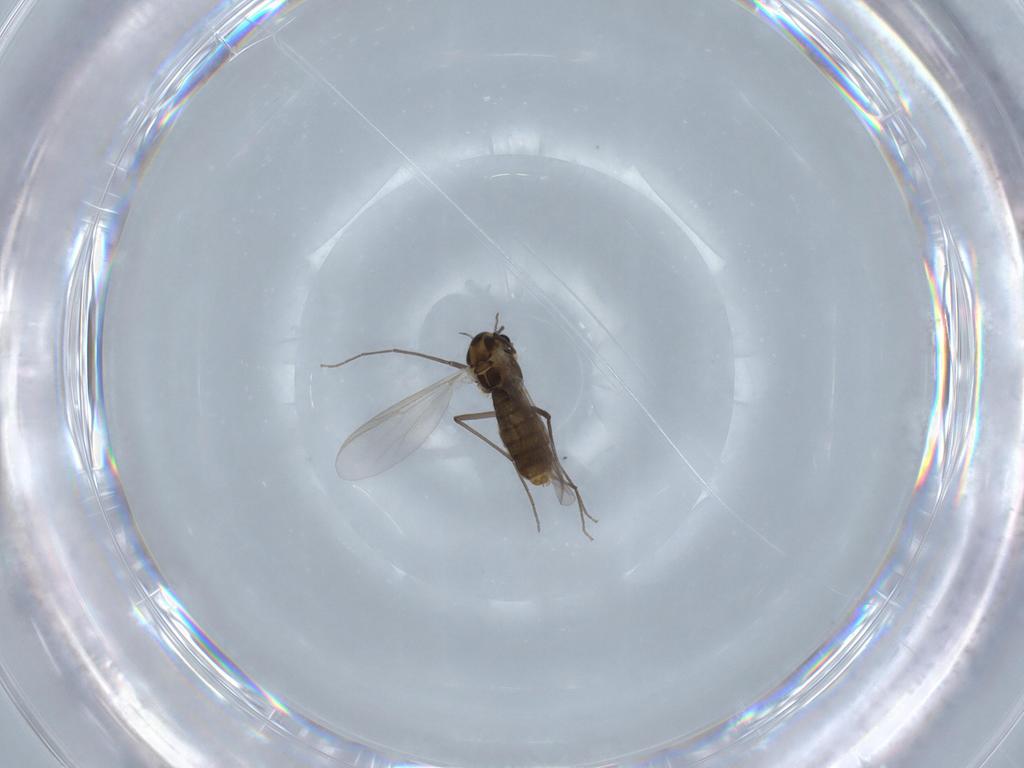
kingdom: Animalia
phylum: Arthropoda
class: Insecta
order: Diptera
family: Chironomidae
